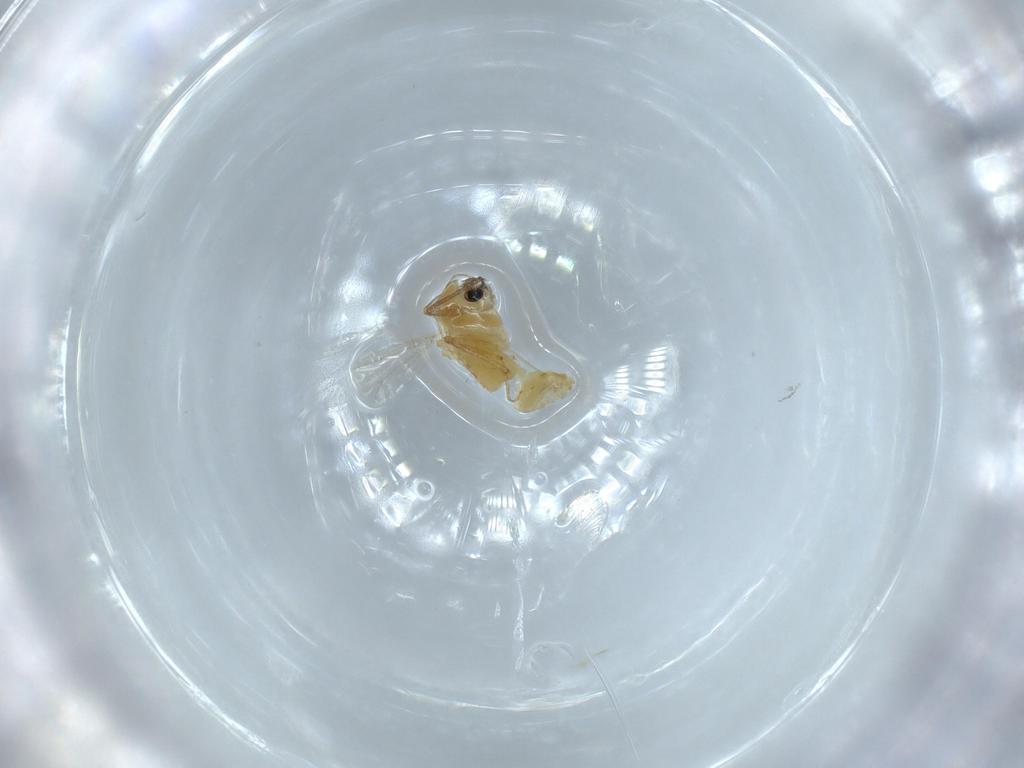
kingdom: Animalia
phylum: Arthropoda
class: Insecta
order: Diptera
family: Chironomidae
